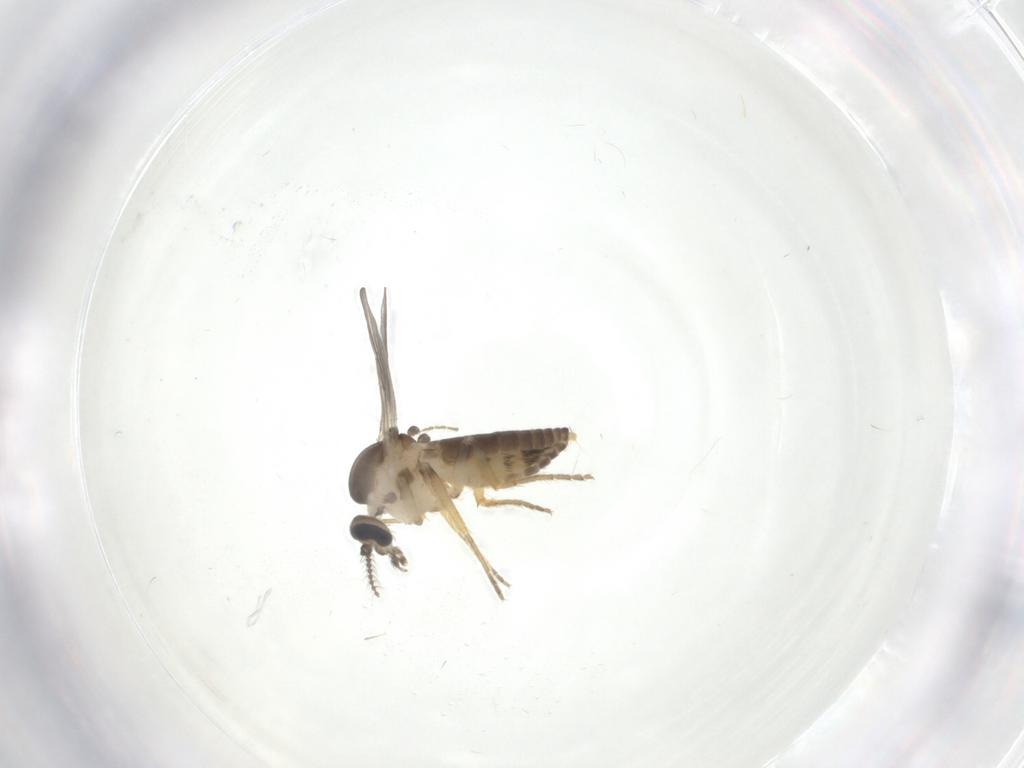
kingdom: Animalia
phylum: Arthropoda
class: Insecta
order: Diptera
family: Ceratopogonidae
